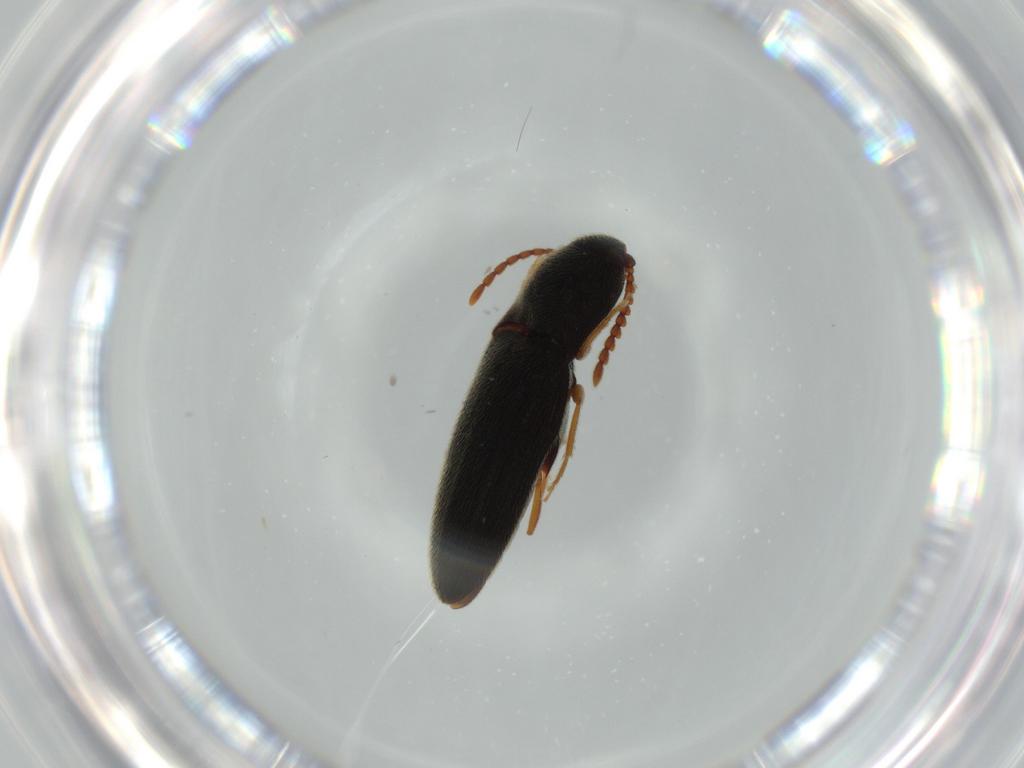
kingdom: Animalia
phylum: Arthropoda
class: Insecta
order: Coleoptera
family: Elateridae
